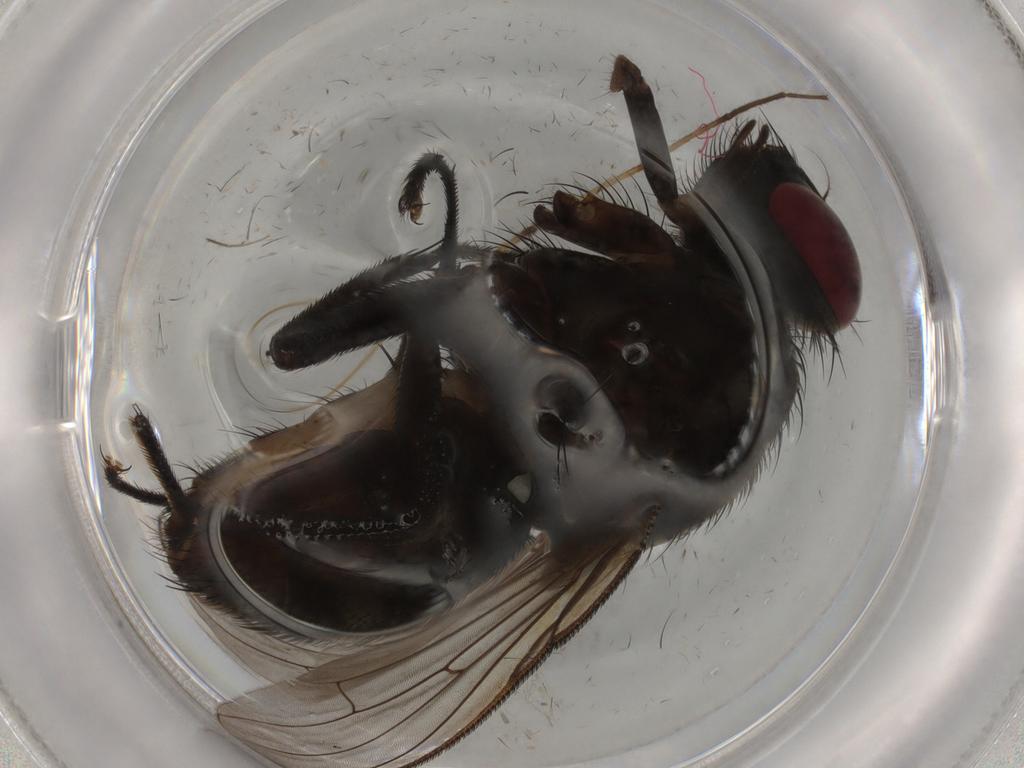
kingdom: Animalia
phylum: Arthropoda
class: Insecta
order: Diptera
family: Muscidae
